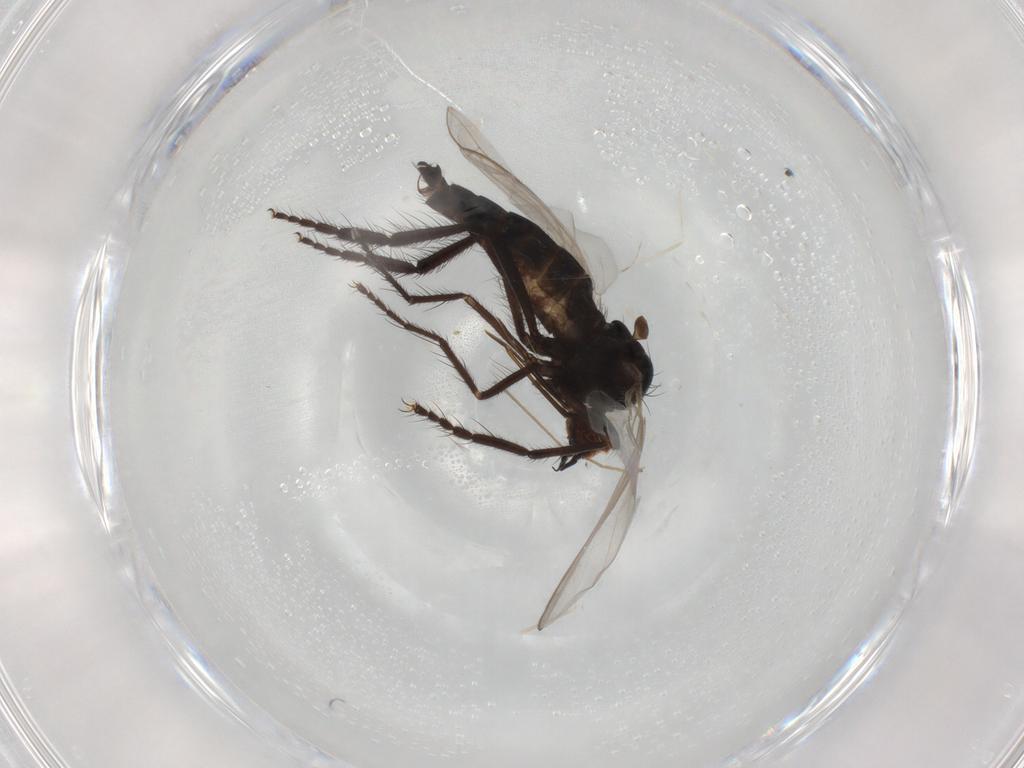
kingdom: Animalia
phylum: Arthropoda
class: Insecta
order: Diptera
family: Empididae
